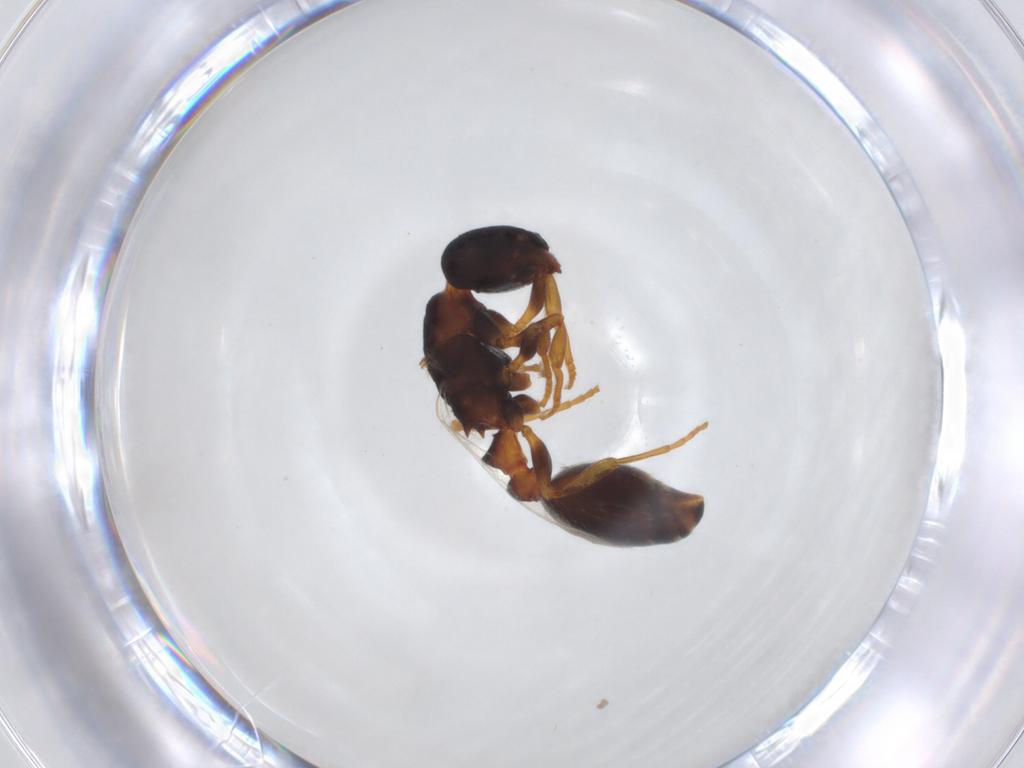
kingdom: Animalia
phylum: Arthropoda
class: Insecta
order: Hymenoptera
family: Formicidae
